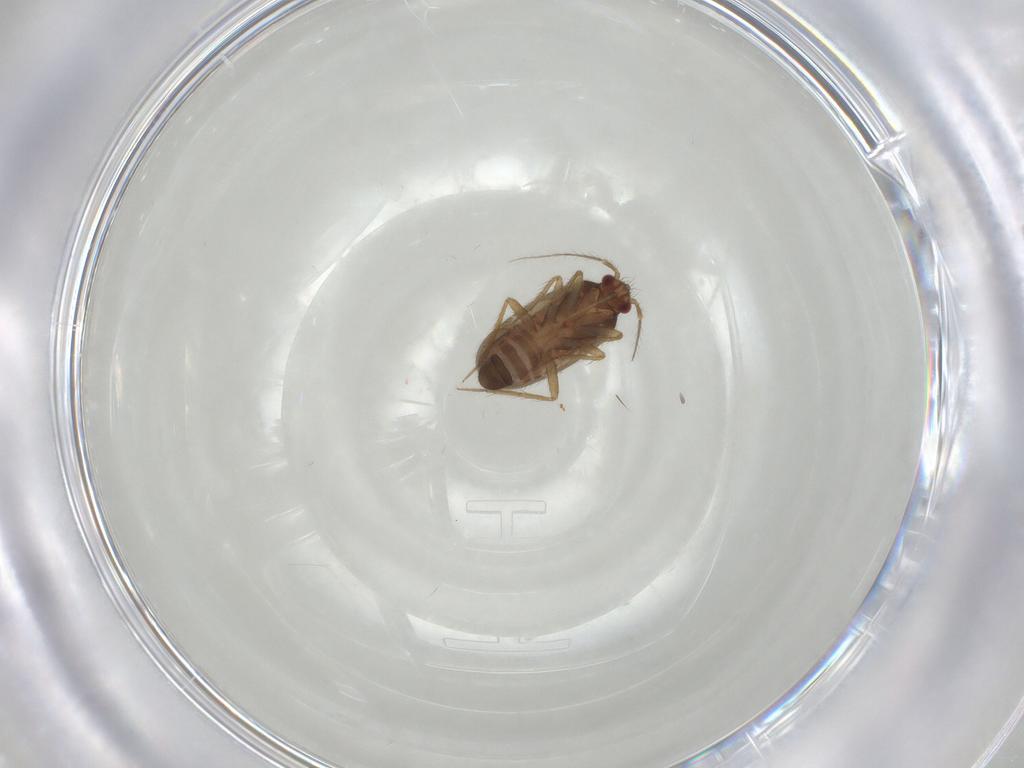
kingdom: Animalia
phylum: Arthropoda
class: Insecta
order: Hemiptera
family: Ceratocombidae
